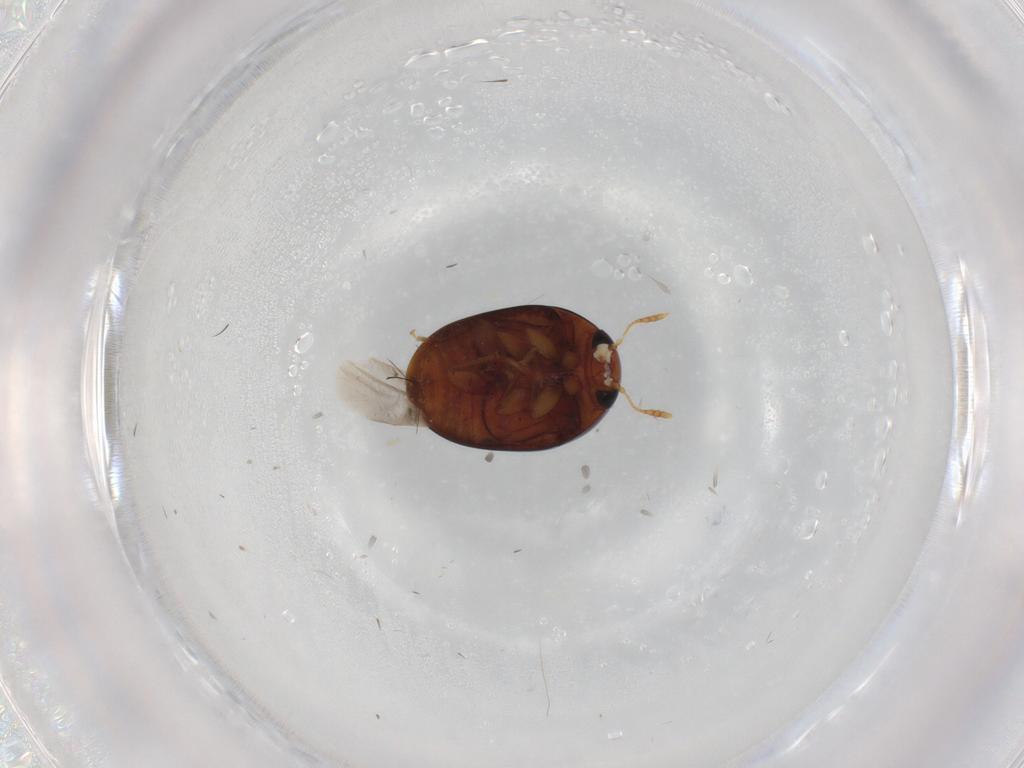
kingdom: Animalia
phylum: Arthropoda
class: Insecta
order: Coleoptera
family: Phalacridae
